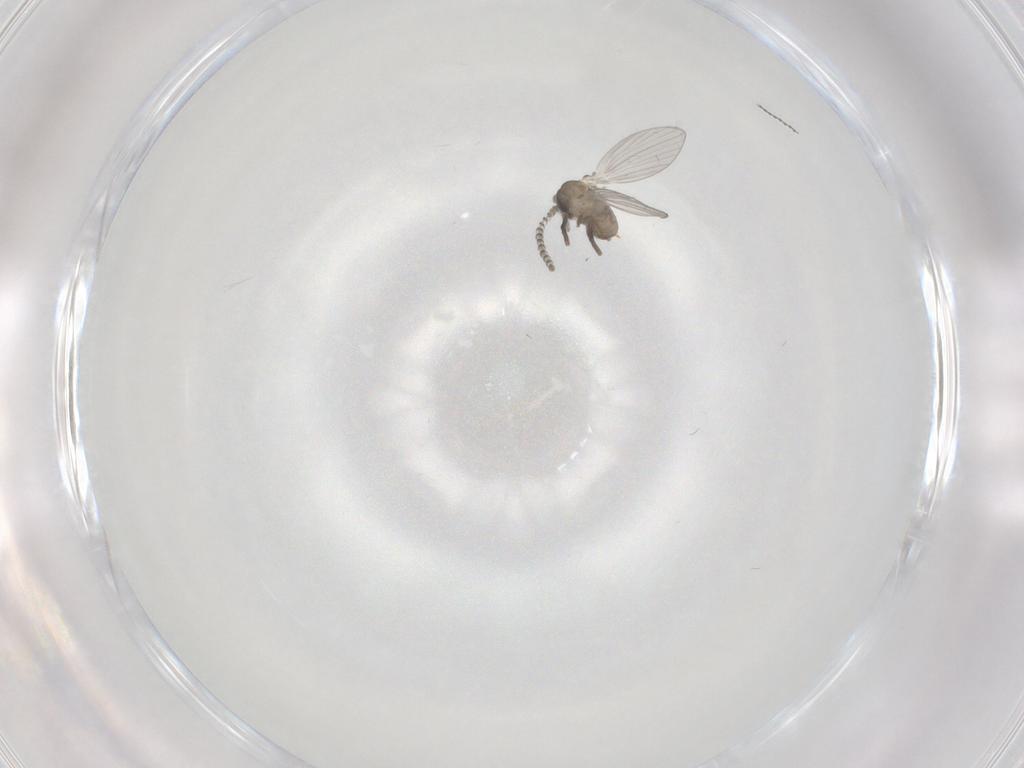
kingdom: Animalia
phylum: Arthropoda
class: Insecta
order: Diptera
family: Psychodidae
